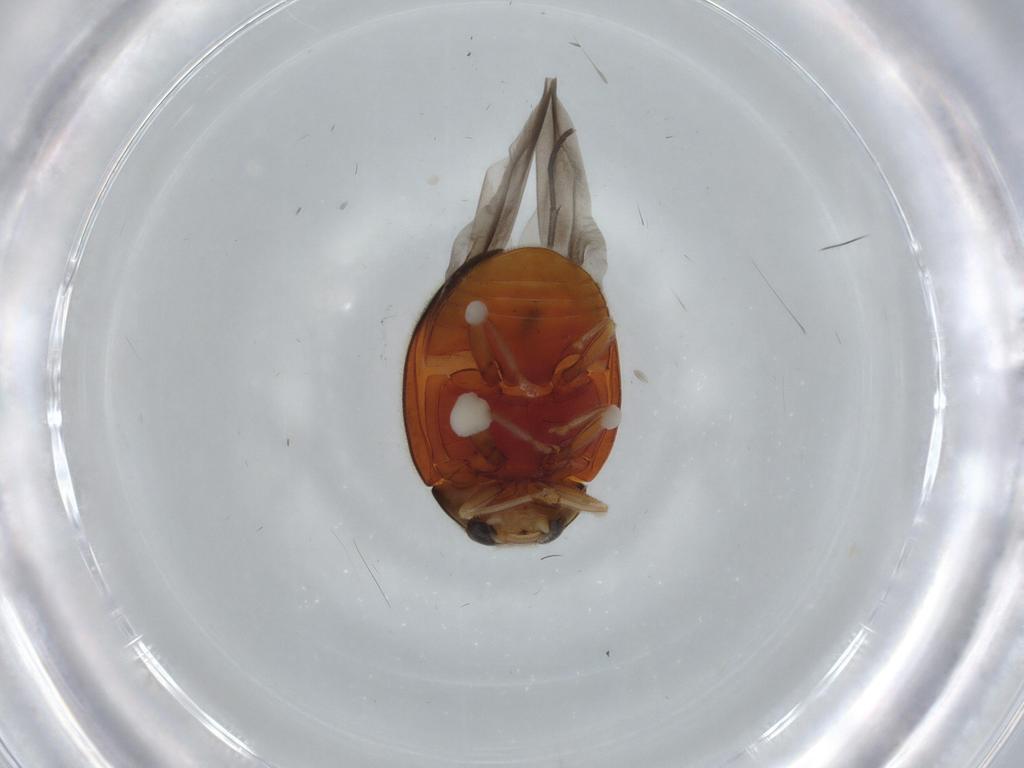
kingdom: Animalia
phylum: Arthropoda
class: Insecta
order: Coleoptera
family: Coccinellidae
